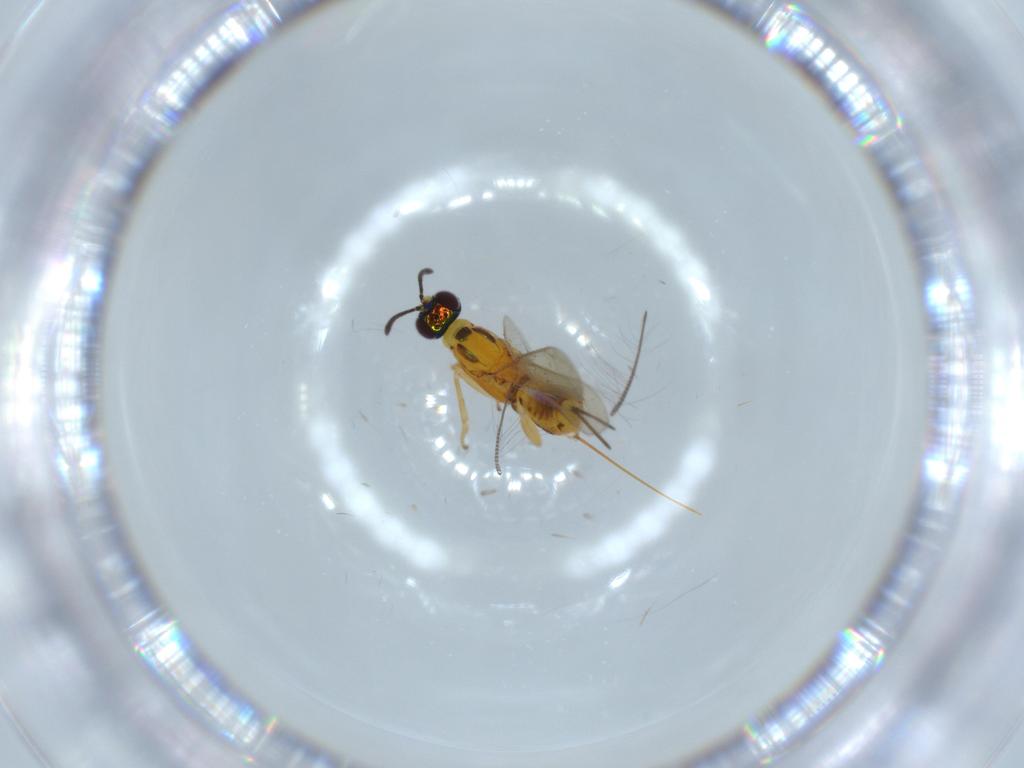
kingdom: Animalia
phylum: Arthropoda
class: Insecta
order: Hymenoptera
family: Eupelmidae
